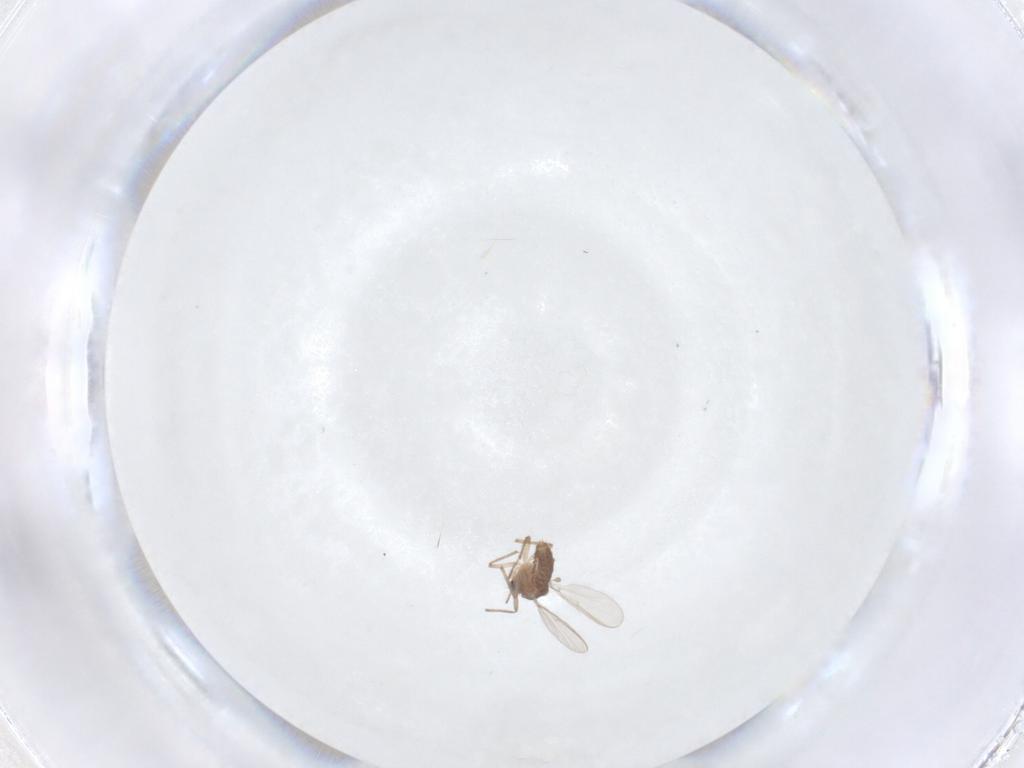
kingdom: Animalia
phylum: Arthropoda
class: Insecta
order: Diptera
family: Chironomidae
